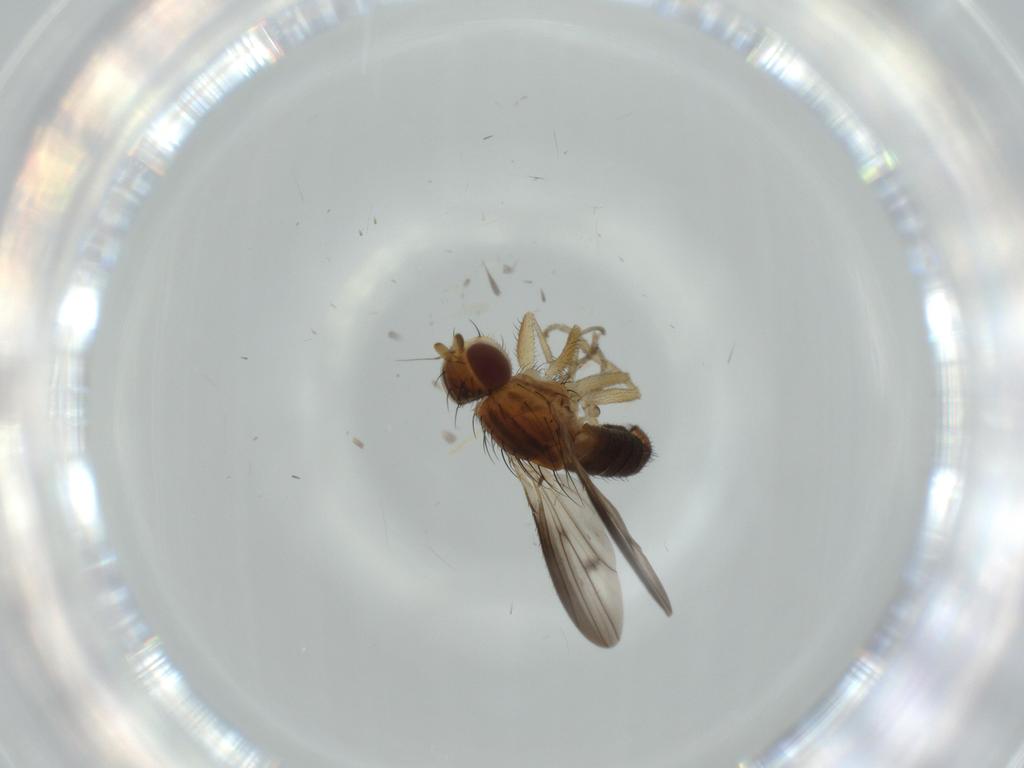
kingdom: Animalia
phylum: Arthropoda
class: Insecta
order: Diptera
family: Heleomyzidae
